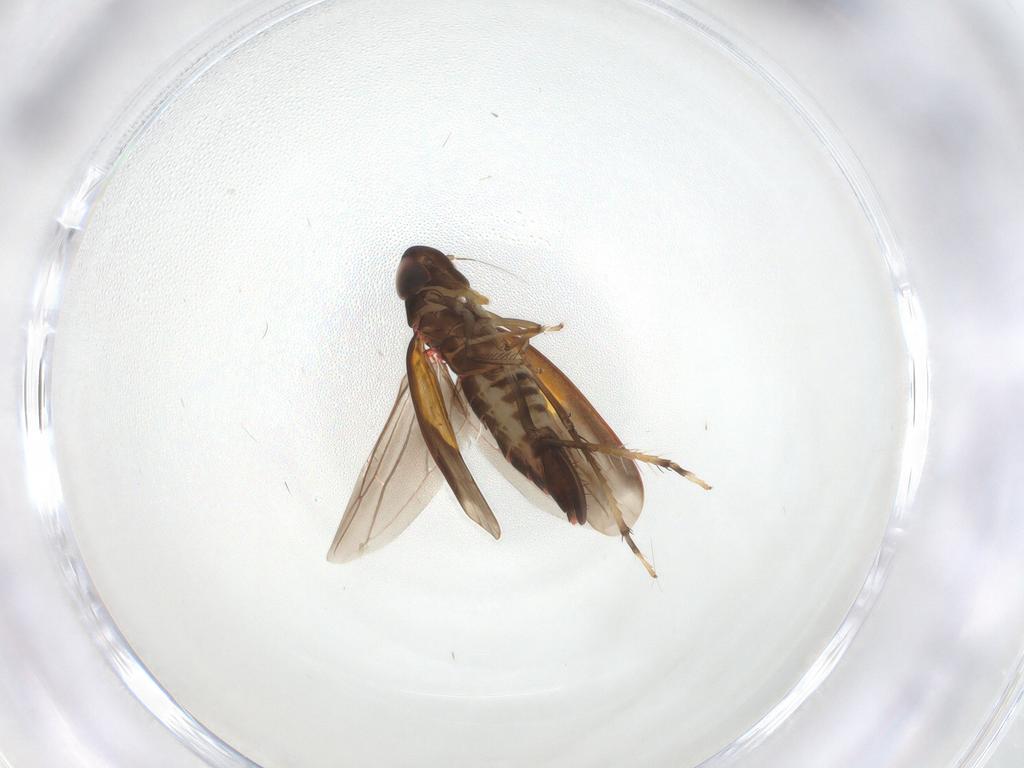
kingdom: Animalia
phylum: Arthropoda
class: Insecta
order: Hemiptera
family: Cicadellidae
